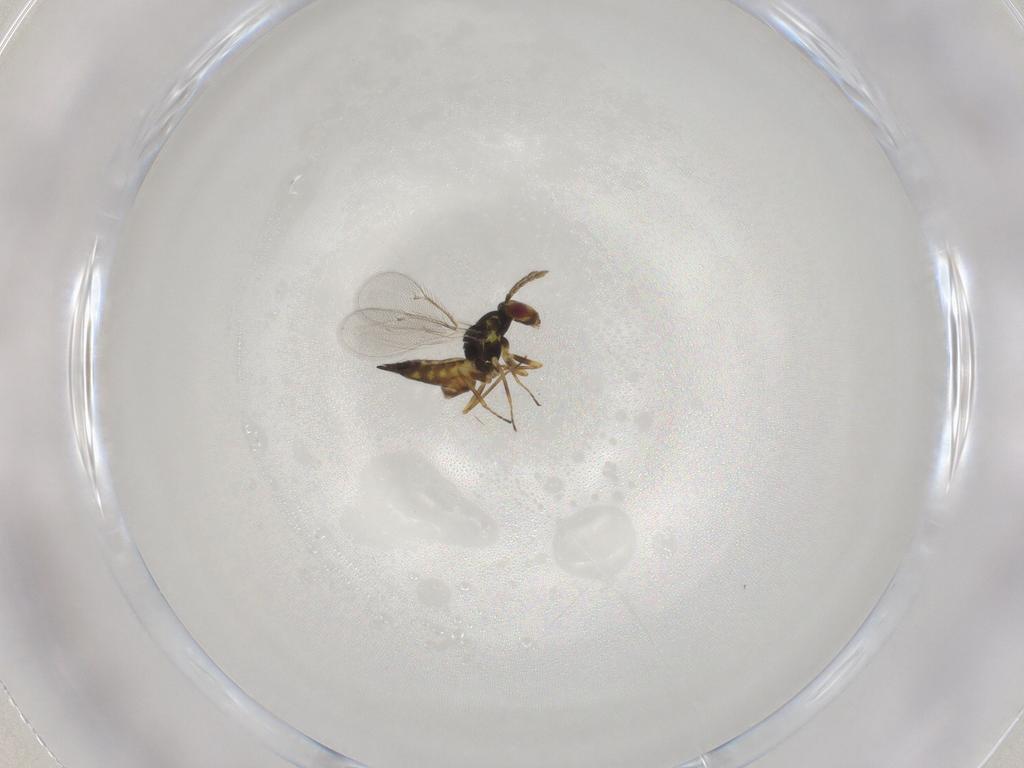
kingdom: Animalia
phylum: Arthropoda
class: Insecta
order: Hymenoptera
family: Eulophidae
